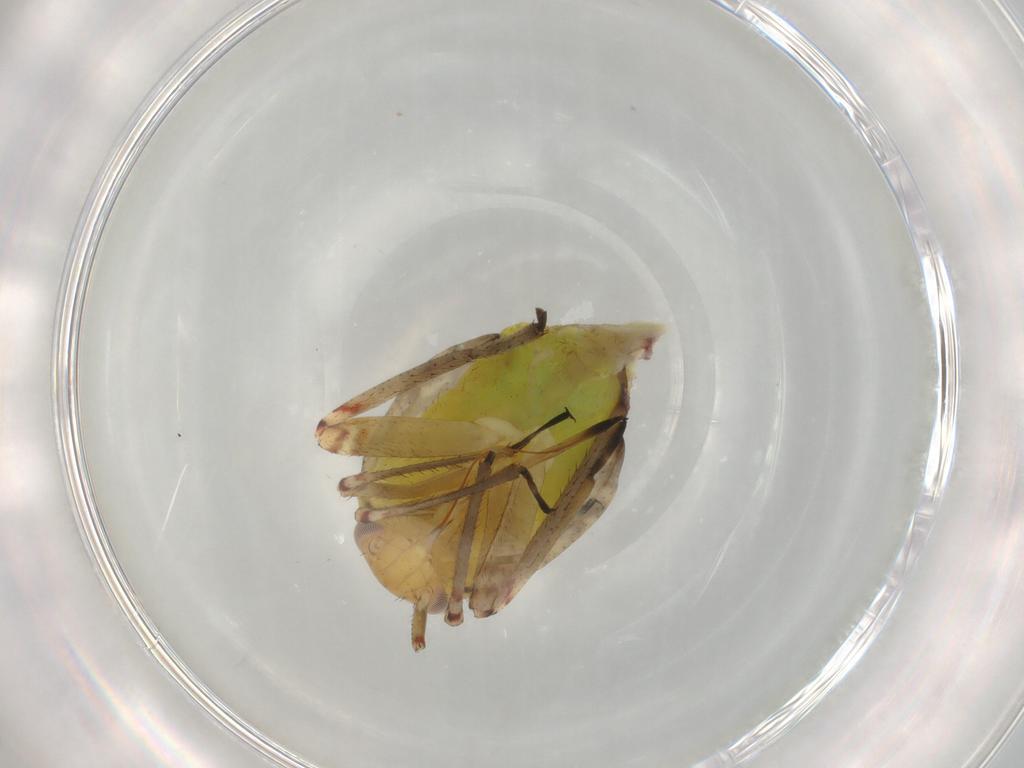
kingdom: Animalia
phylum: Arthropoda
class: Insecta
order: Hemiptera
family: Miridae
